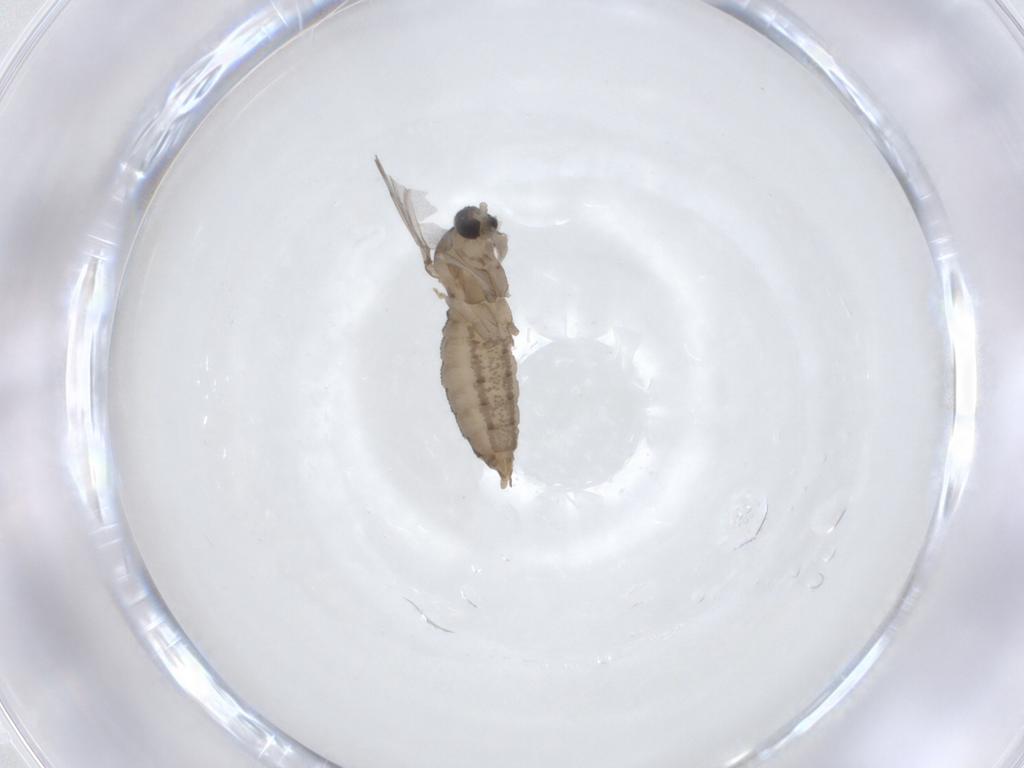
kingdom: Animalia
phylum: Arthropoda
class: Insecta
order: Diptera
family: Cecidomyiidae
